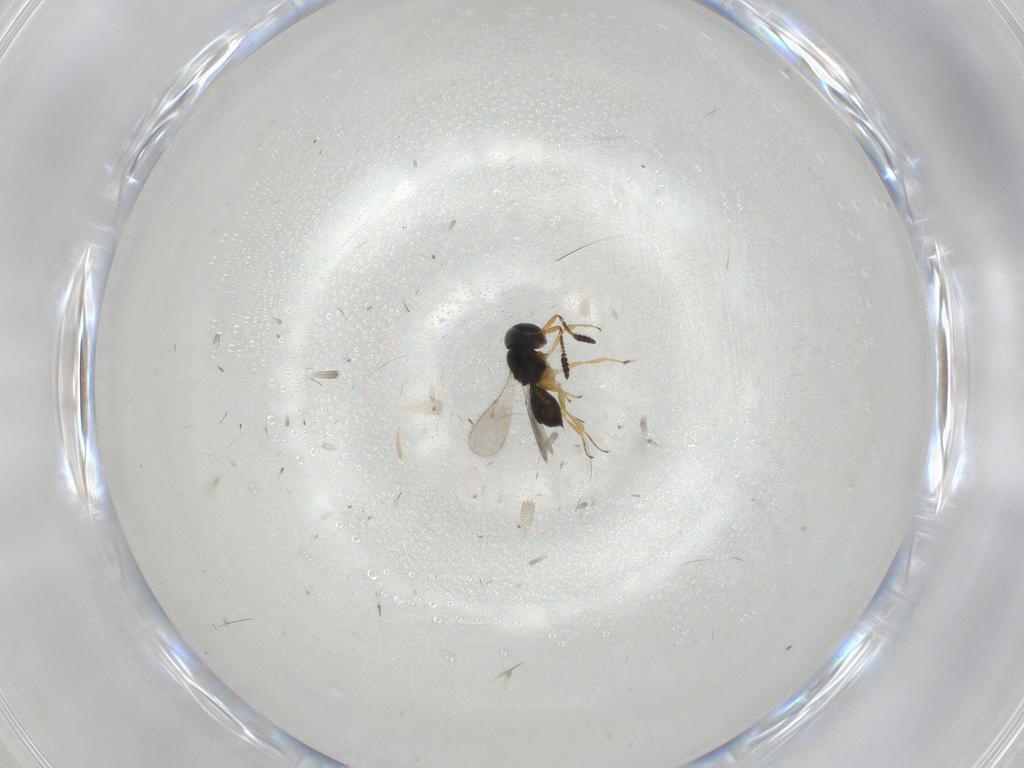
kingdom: Animalia
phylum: Arthropoda
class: Insecta
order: Hymenoptera
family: Scelionidae
